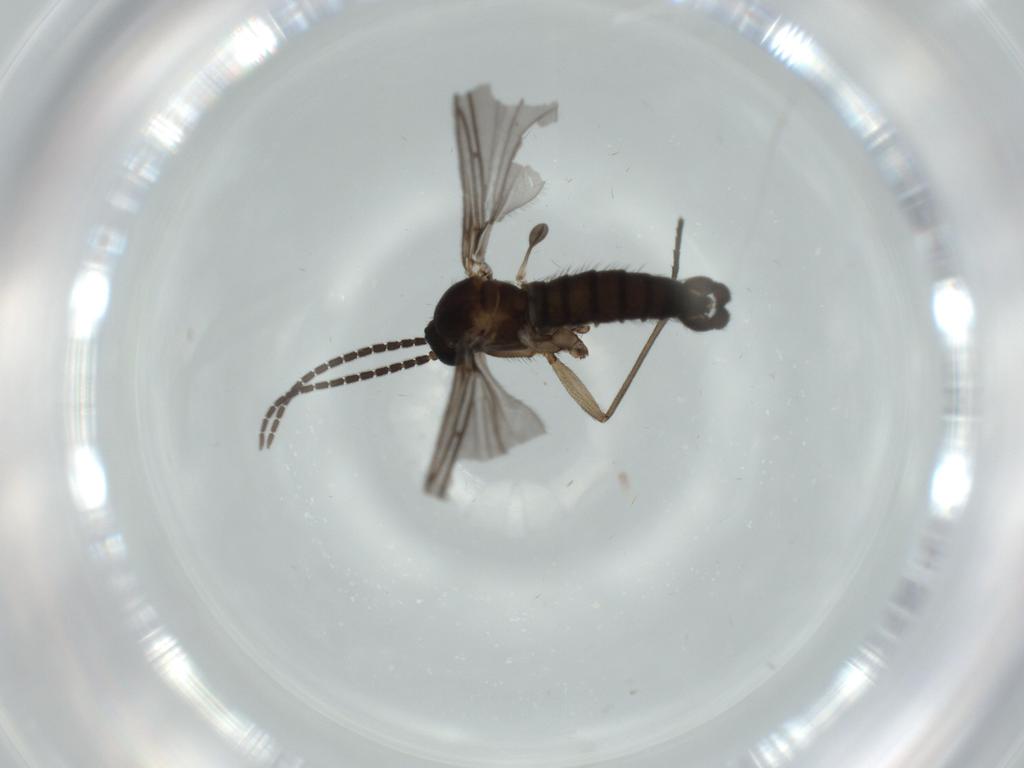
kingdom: Animalia
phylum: Arthropoda
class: Insecta
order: Diptera
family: Sciaridae
